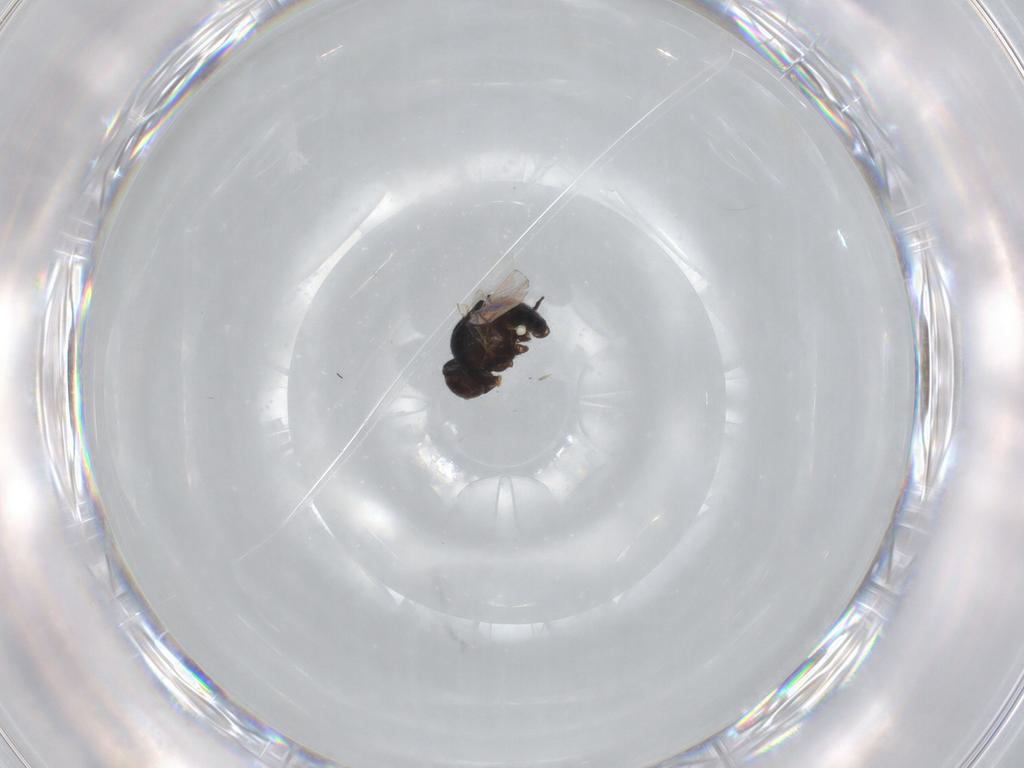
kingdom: Animalia
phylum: Arthropoda
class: Insecta
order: Diptera
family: Agromyzidae
